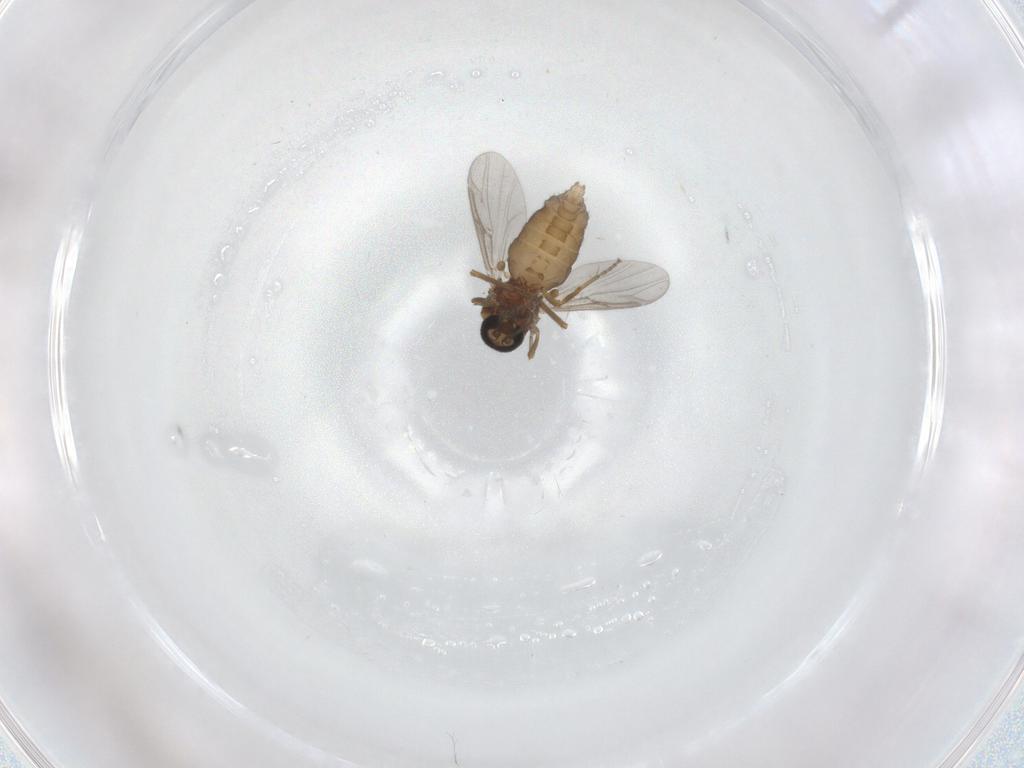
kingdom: Animalia
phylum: Arthropoda
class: Insecta
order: Diptera
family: Ceratopogonidae
